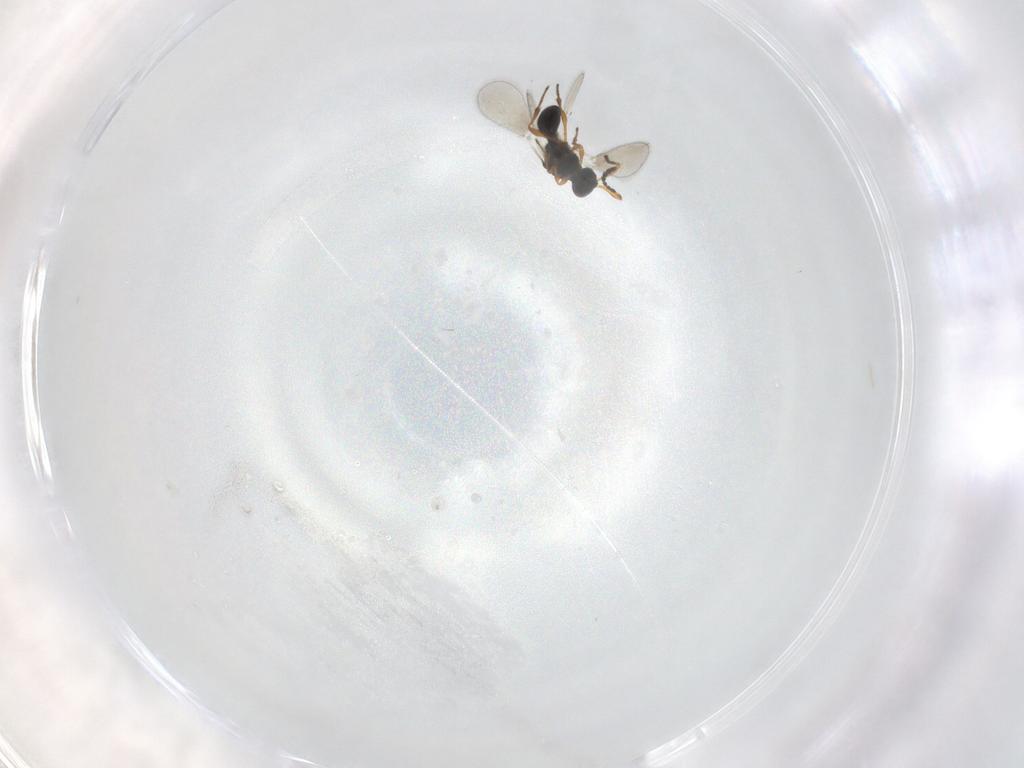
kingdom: Animalia
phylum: Arthropoda
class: Insecta
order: Hymenoptera
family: Platygastridae
